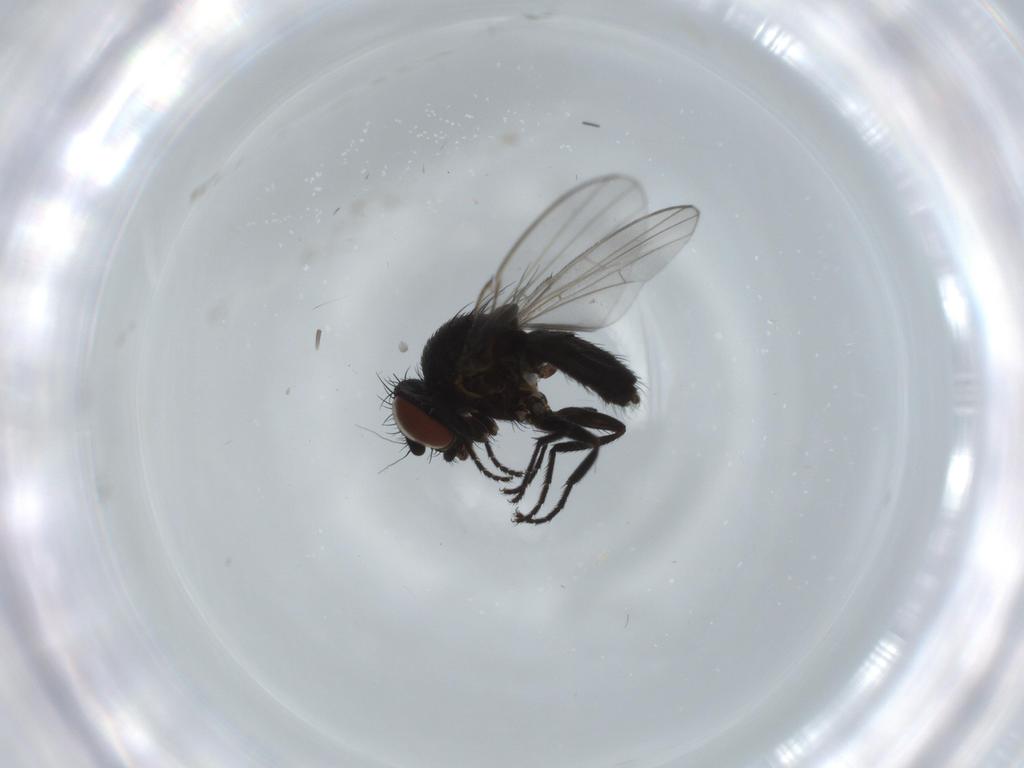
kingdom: Animalia
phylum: Arthropoda
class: Insecta
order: Diptera
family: Milichiidae
